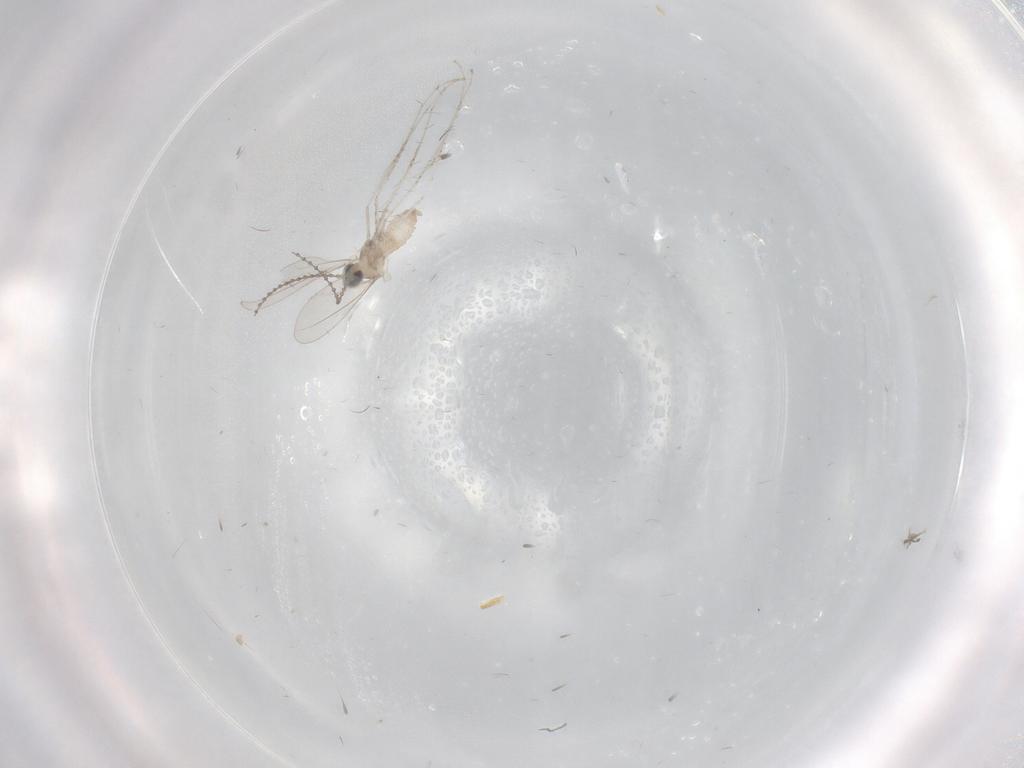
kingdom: Animalia
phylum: Arthropoda
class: Insecta
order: Diptera
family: Cecidomyiidae
